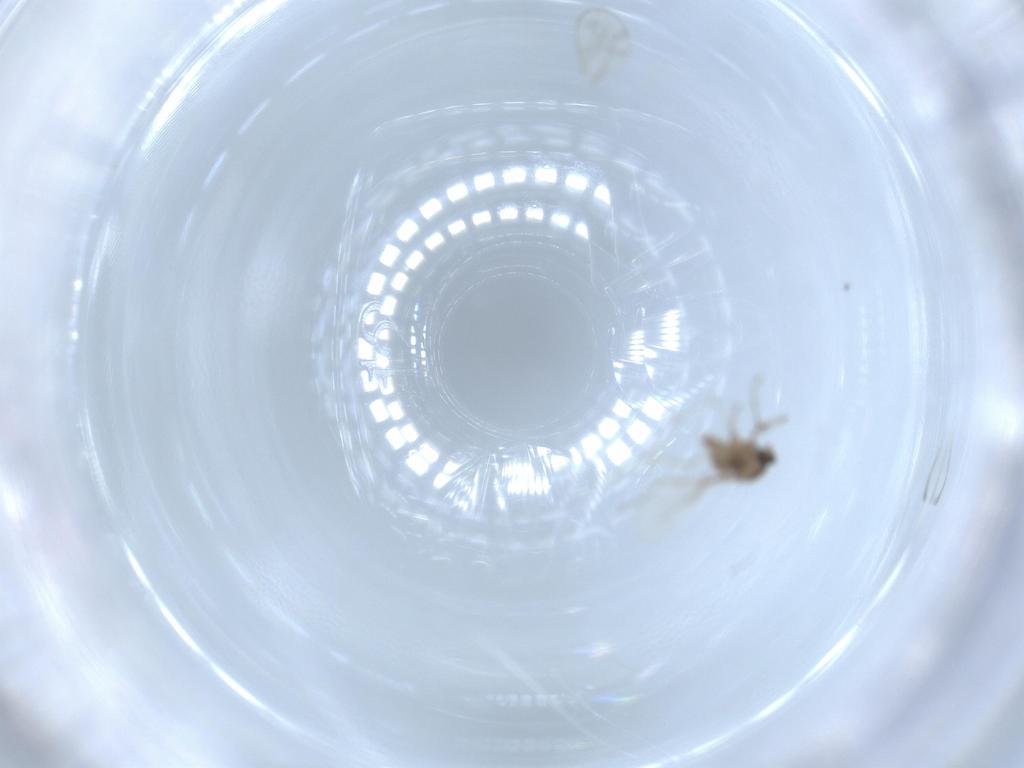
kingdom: Animalia
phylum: Arthropoda
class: Insecta
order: Diptera
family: Cecidomyiidae
